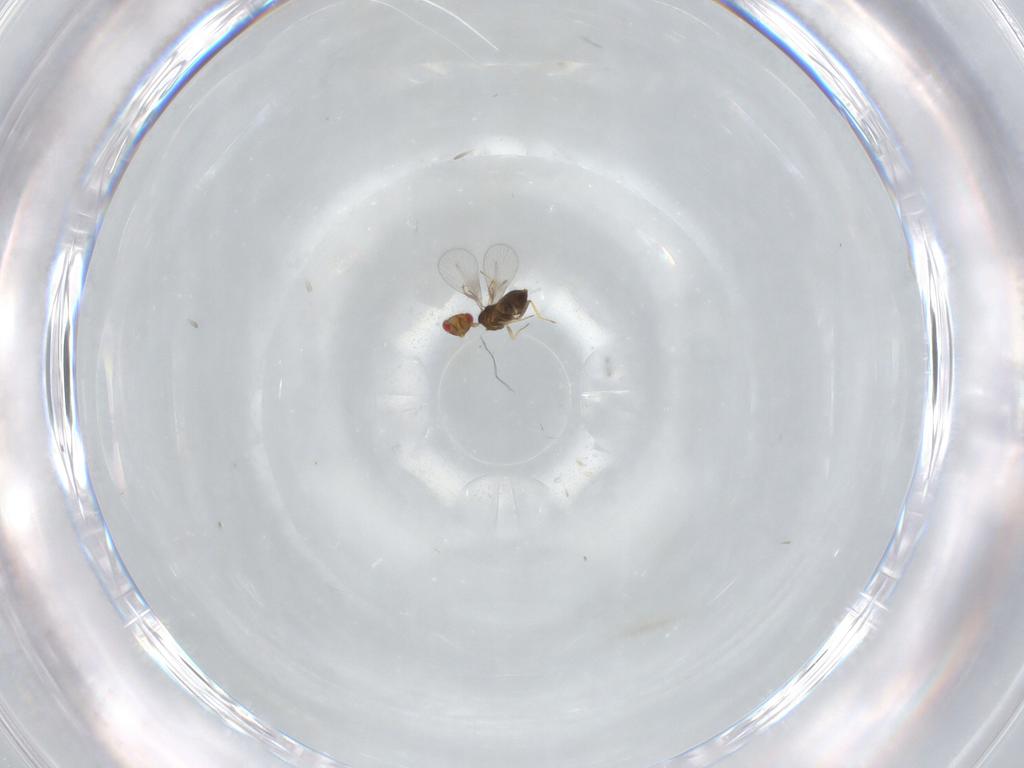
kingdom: Animalia
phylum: Arthropoda
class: Insecta
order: Hymenoptera
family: Trichogrammatidae
